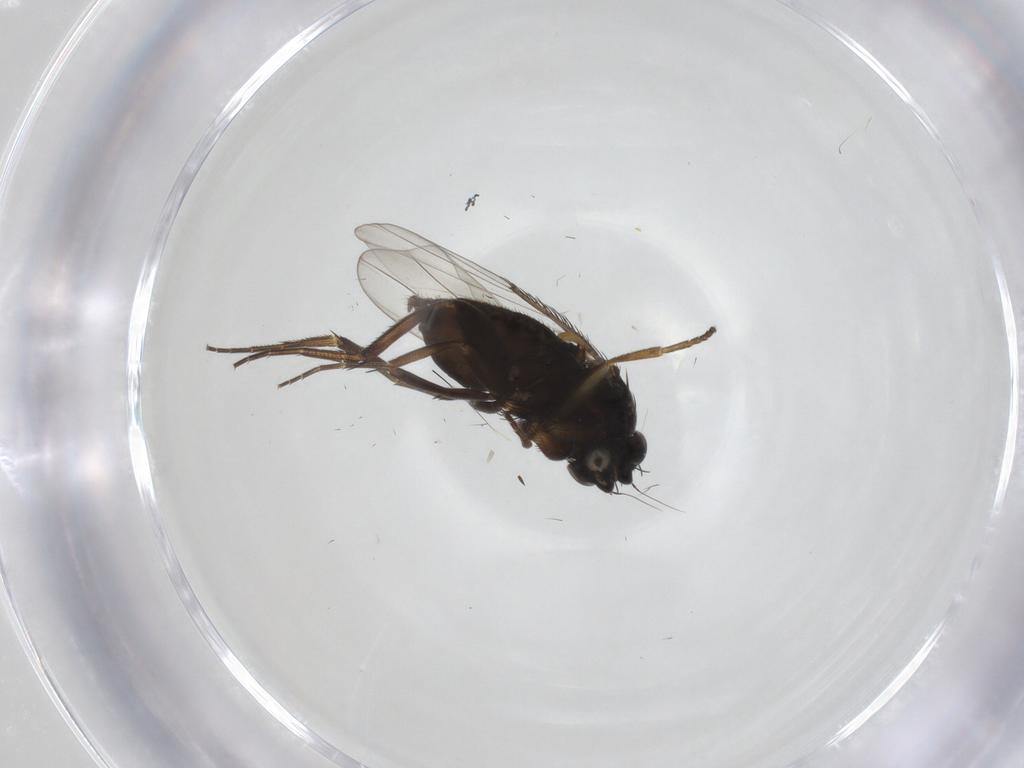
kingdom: Animalia
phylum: Arthropoda
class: Insecta
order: Diptera
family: Phoridae
